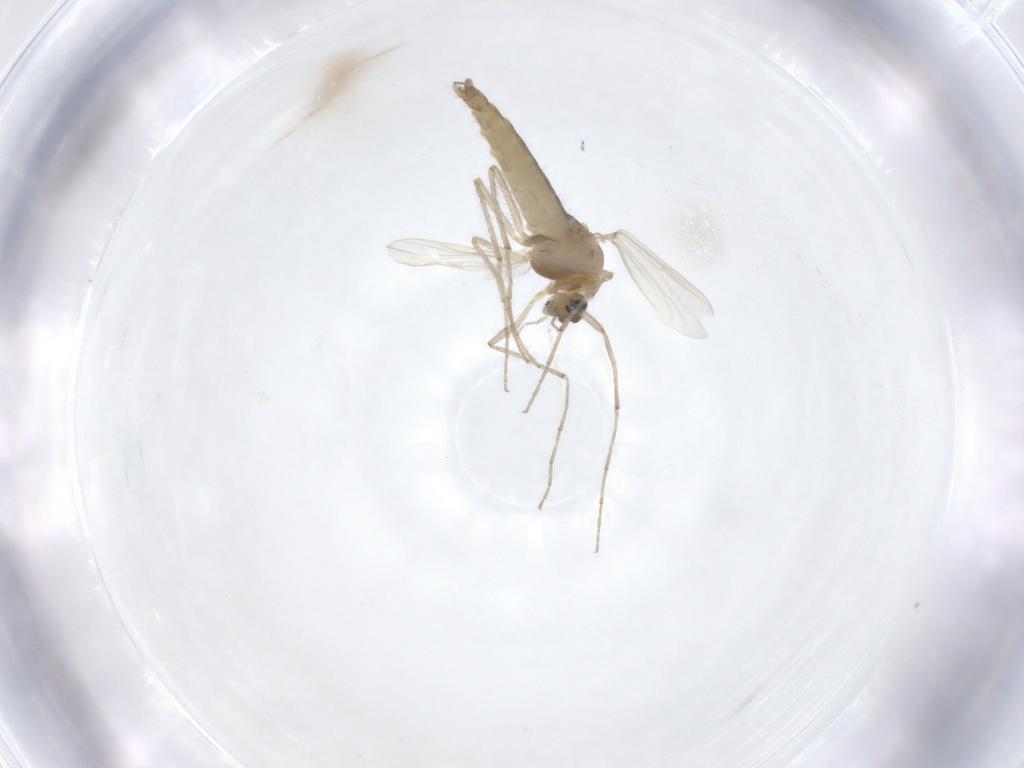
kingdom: Animalia
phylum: Arthropoda
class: Insecta
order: Diptera
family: Chironomidae
